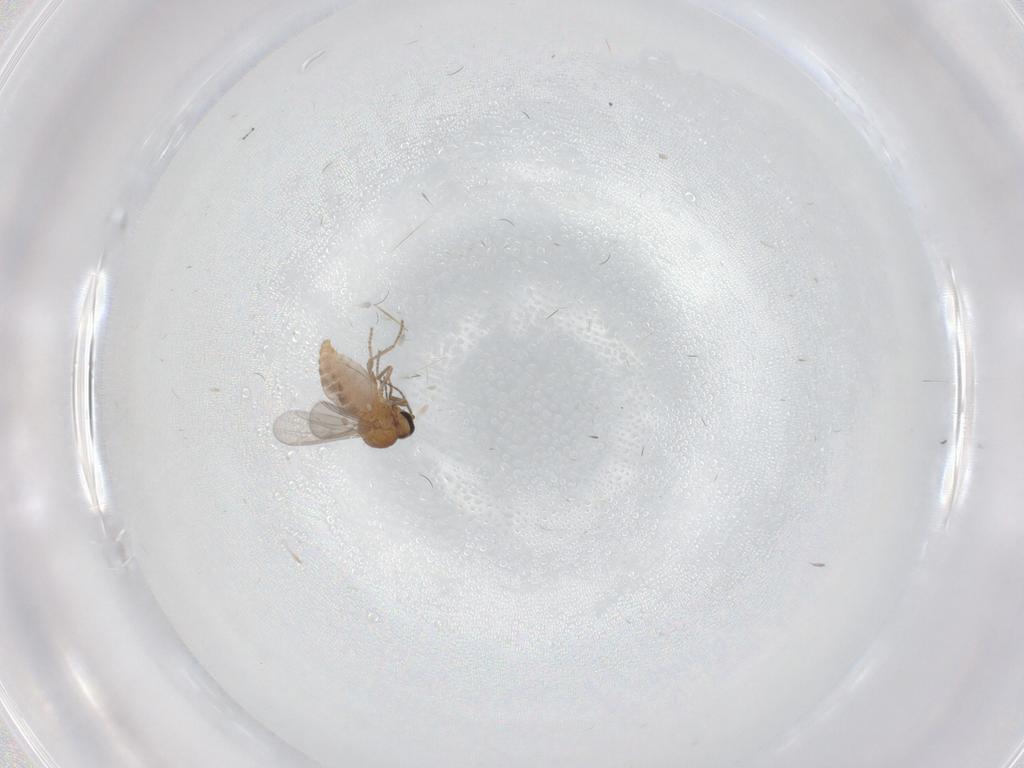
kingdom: Animalia
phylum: Arthropoda
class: Insecta
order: Diptera
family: Ceratopogonidae
